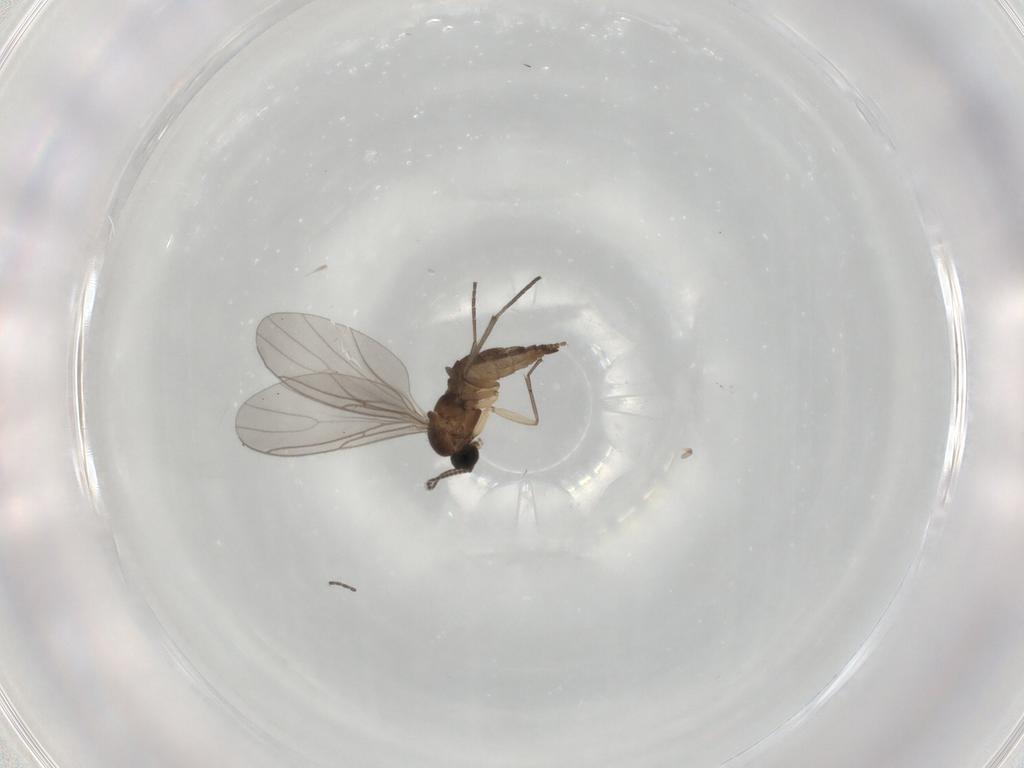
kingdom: Animalia
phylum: Arthropoda
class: Insecta
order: Diptera
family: Sciaridae
